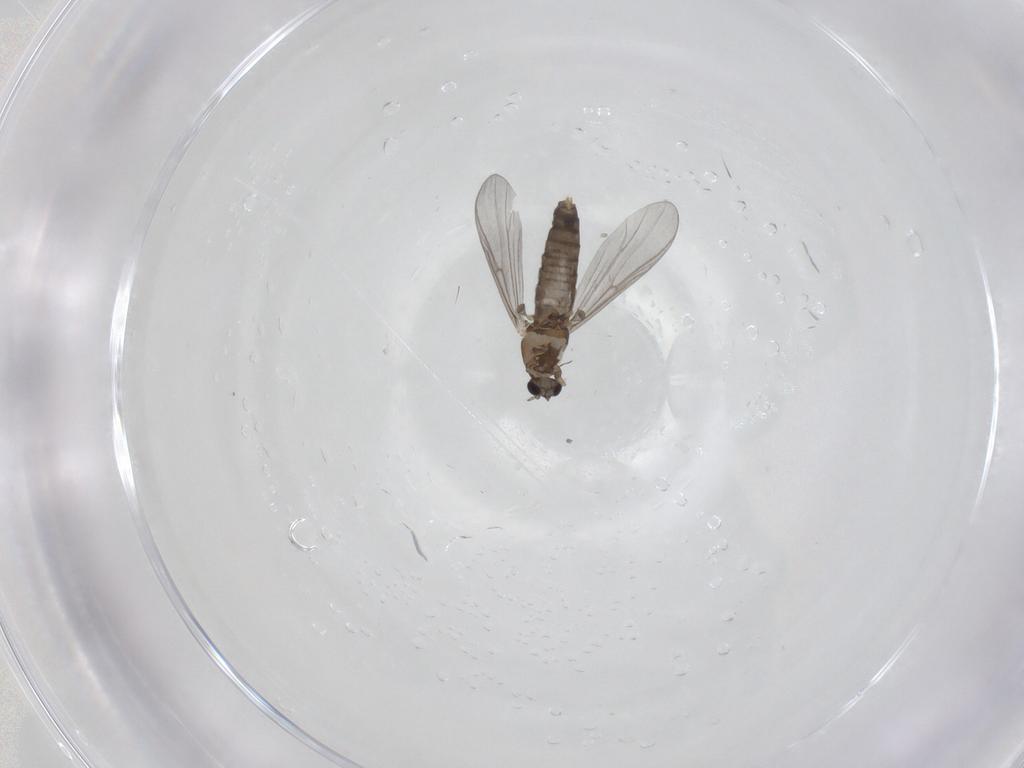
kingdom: Animalia
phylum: Arthropoda
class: Insecta
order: Diptera
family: Chironomidae
